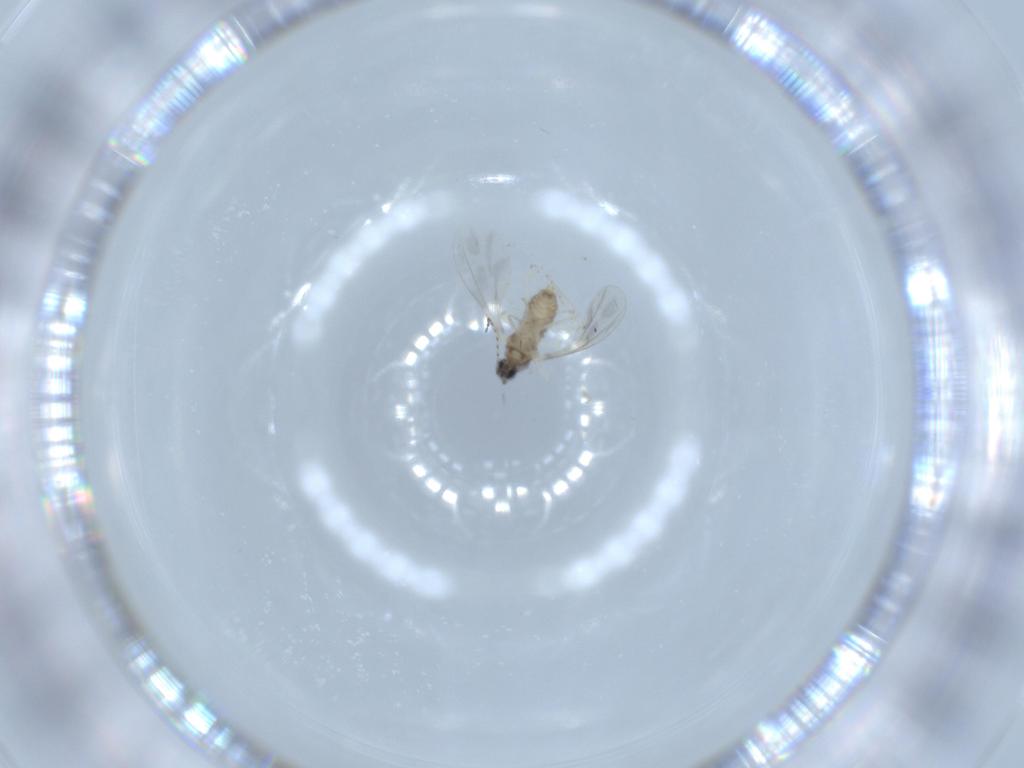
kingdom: Animalia
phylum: Arthropoda
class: Insecta
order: Diptera
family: Cecidomyiidae
